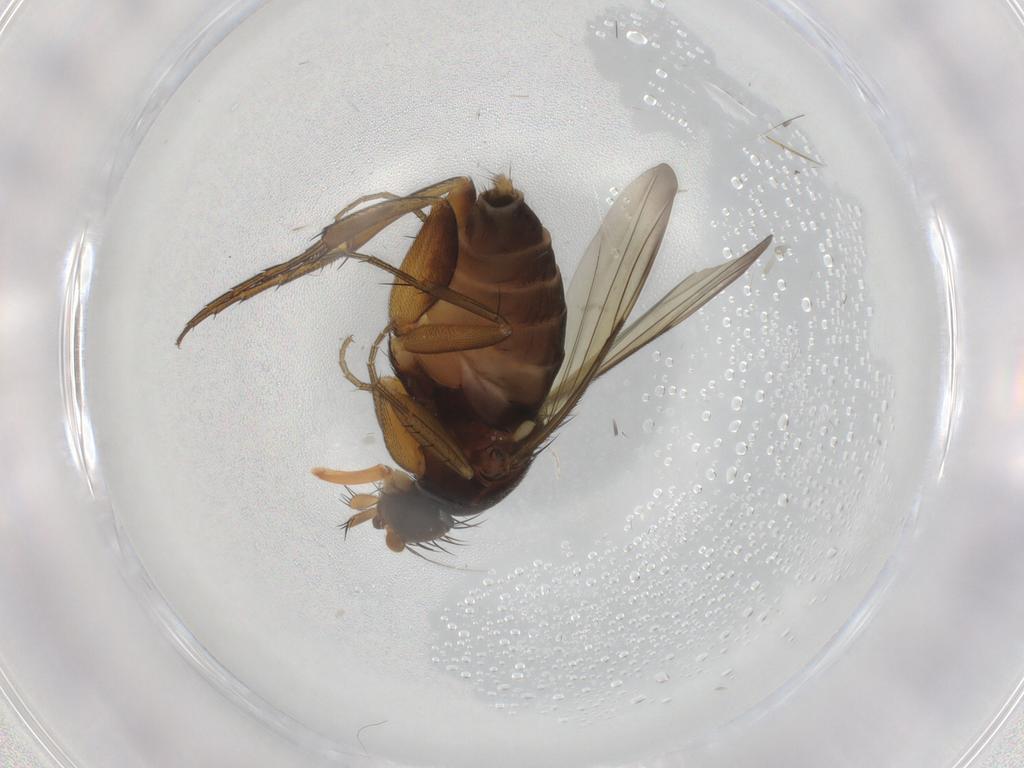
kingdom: Animalia
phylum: Arthropoda
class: Insecta
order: Diptera
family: Phoridae
